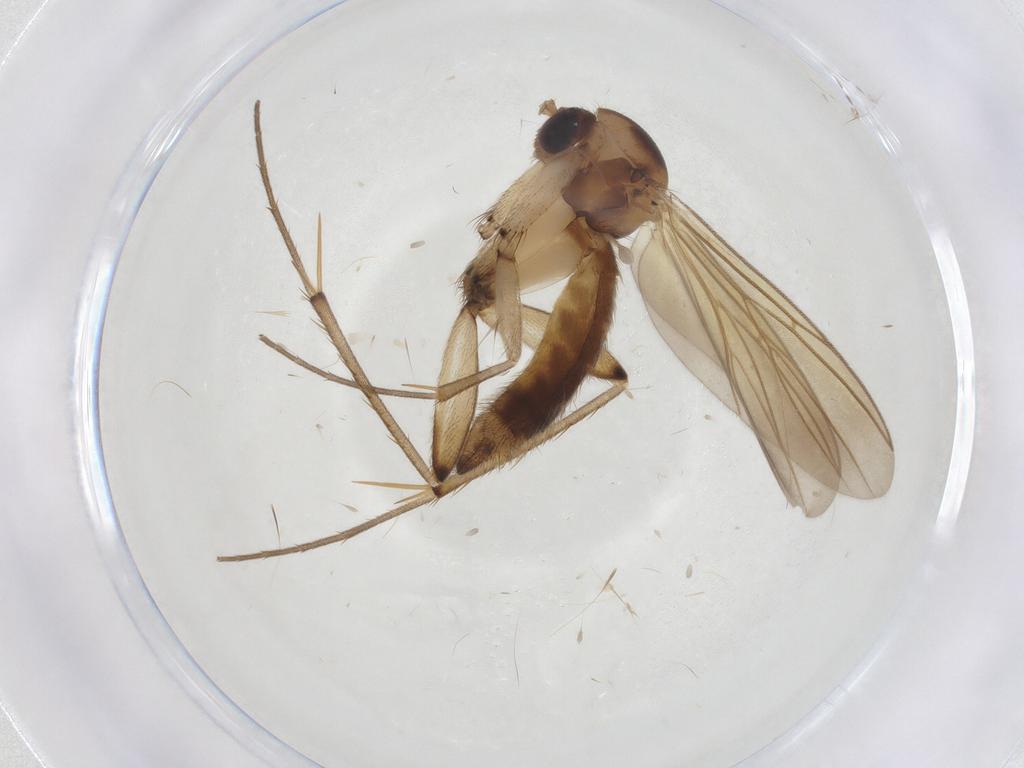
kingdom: Animalia
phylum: Arthropoda
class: Insecta
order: Diptera
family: Mycetophilidae
